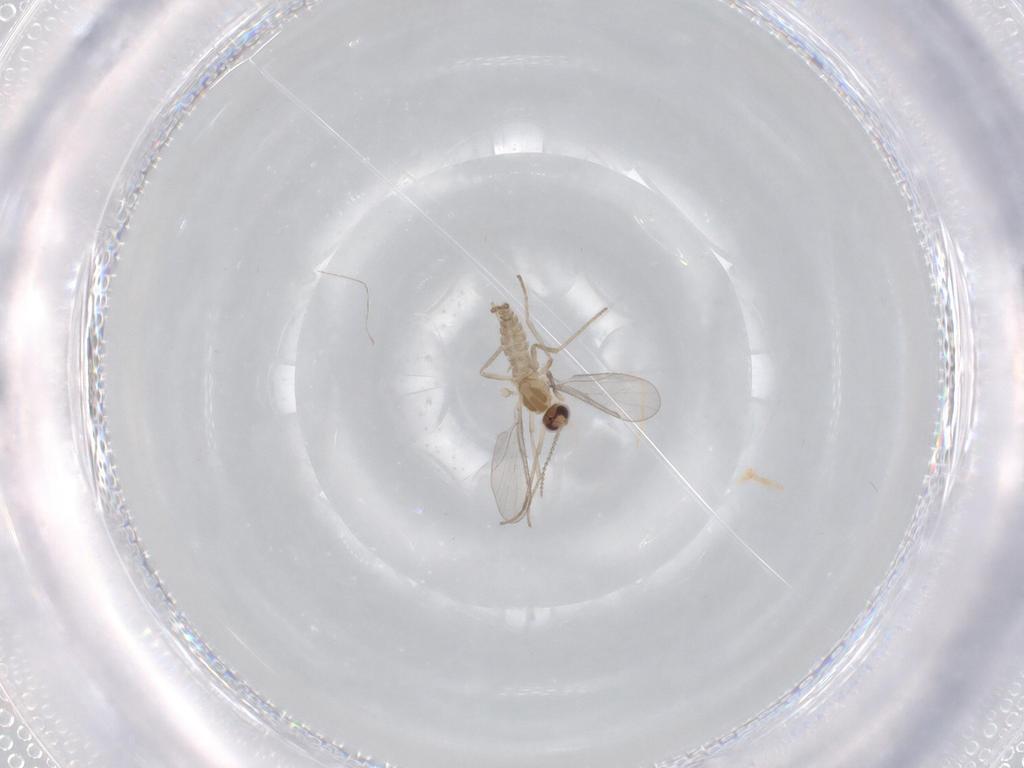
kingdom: Animalia
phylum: Arthropoda
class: Insecta
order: Diptera
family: Cecidomyiidae
